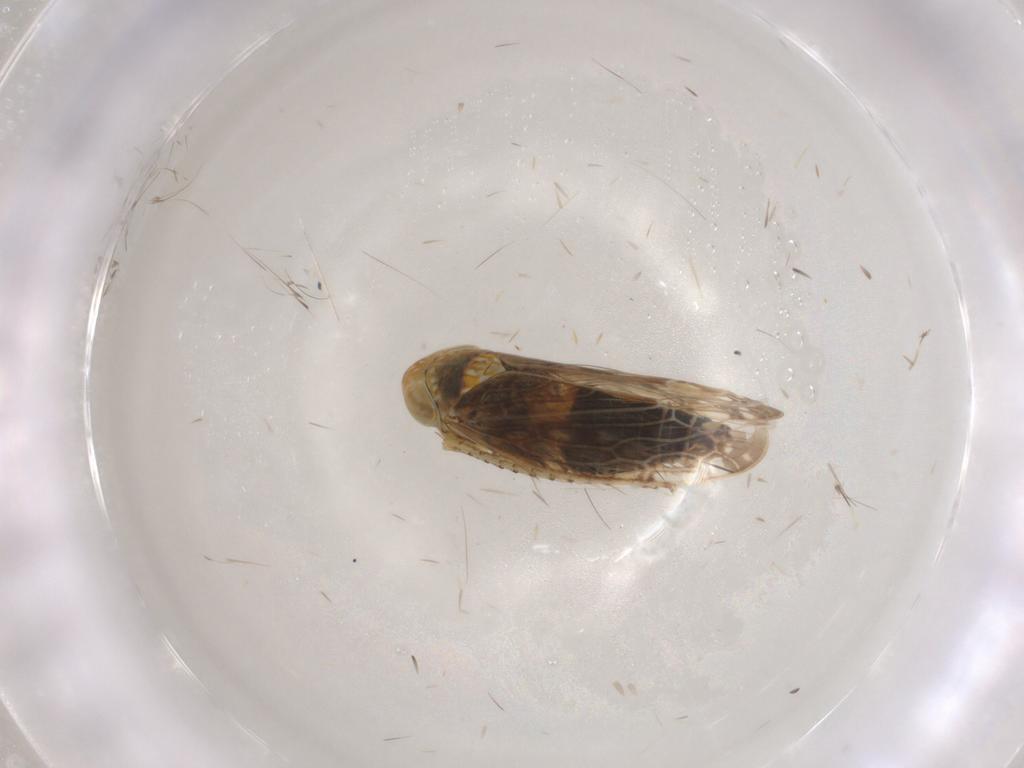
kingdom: Animalia
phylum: Arthropoda
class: Insecta
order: Hemiptera
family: Cicadellidae
